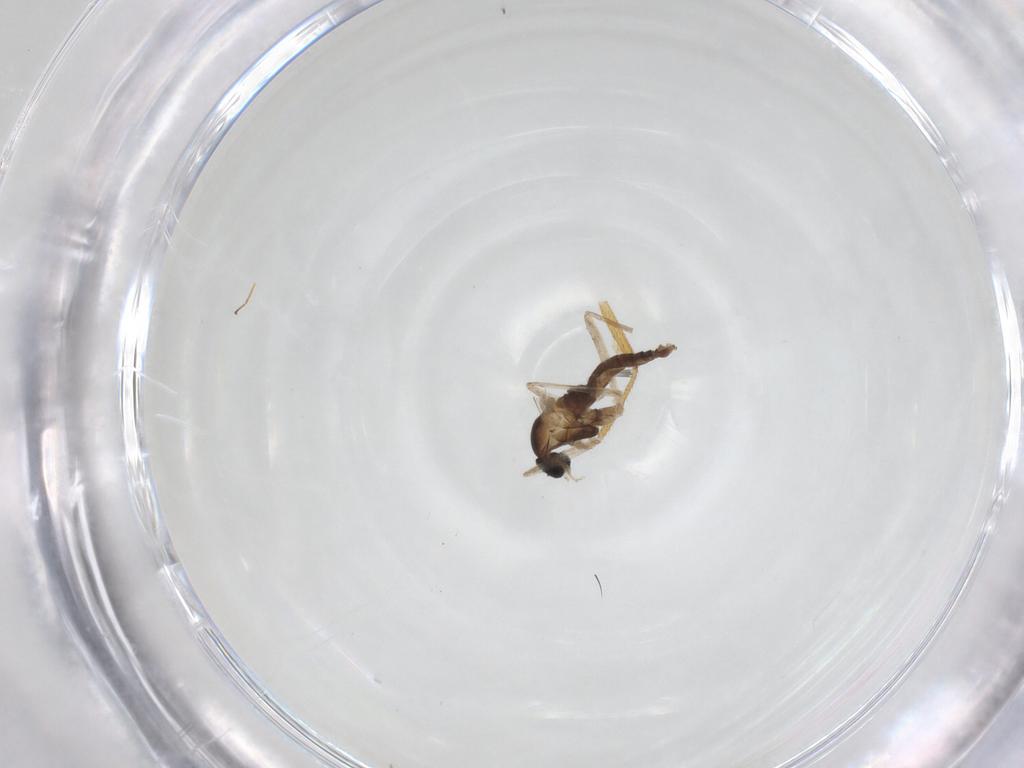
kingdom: Animalia
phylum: Arthropoda
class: Insecta
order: Diptera
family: Cecidomyiidae
